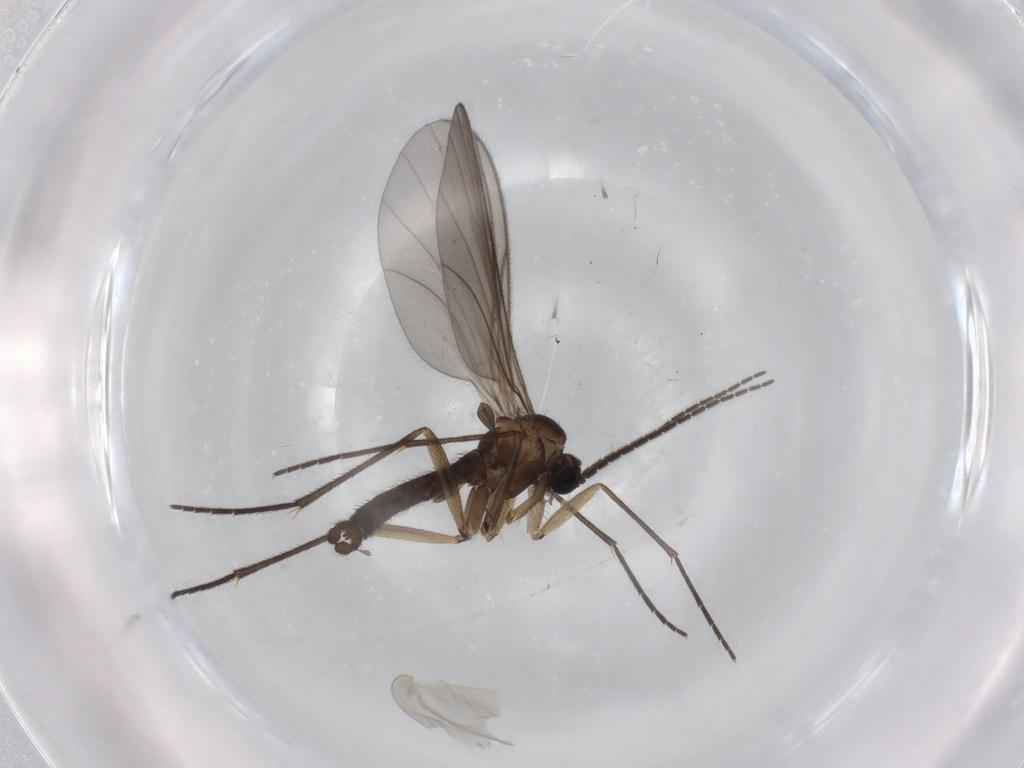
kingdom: Animalia
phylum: Arthropoda
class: Insecta
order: Diptera
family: Sciaridae
